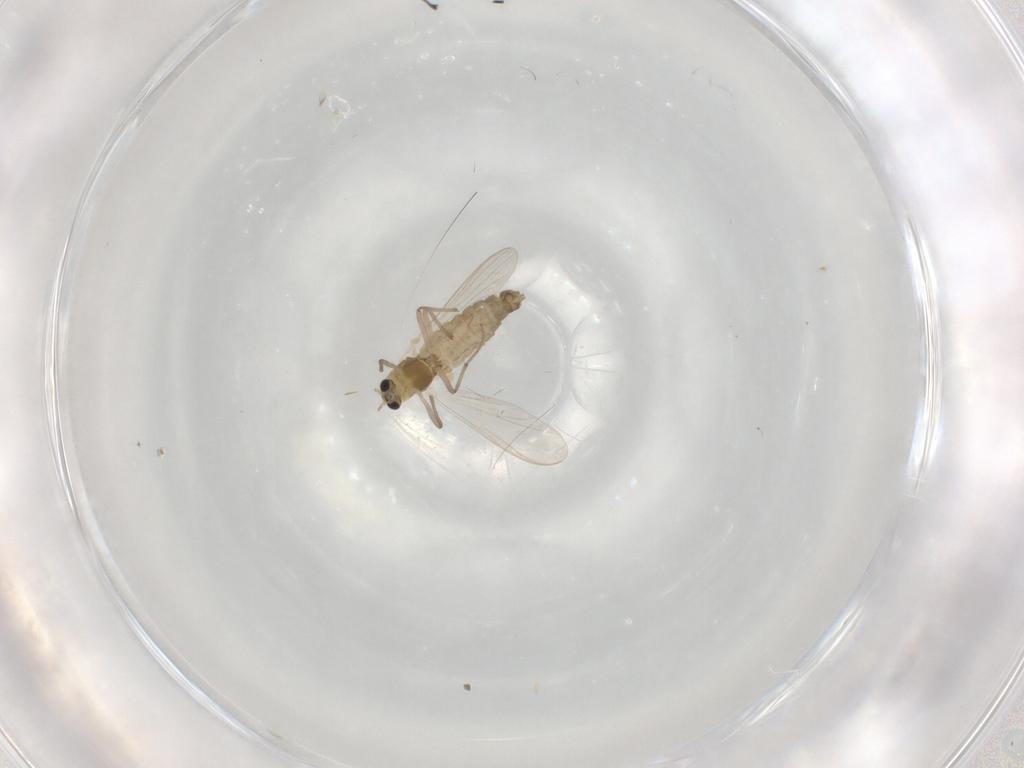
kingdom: Animalia
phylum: Arthropoda
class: Insecta
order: Diptera
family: Chironomidae
